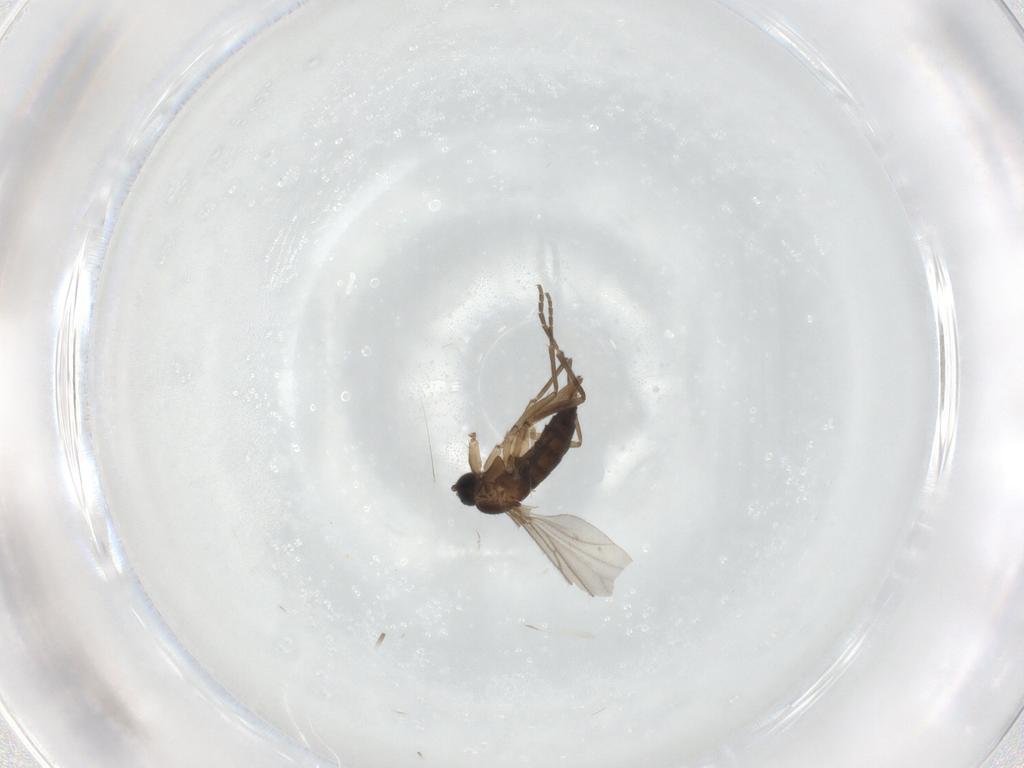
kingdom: Animalia
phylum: Arthropoda
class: Insecta
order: Diptera
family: Sciaridae
